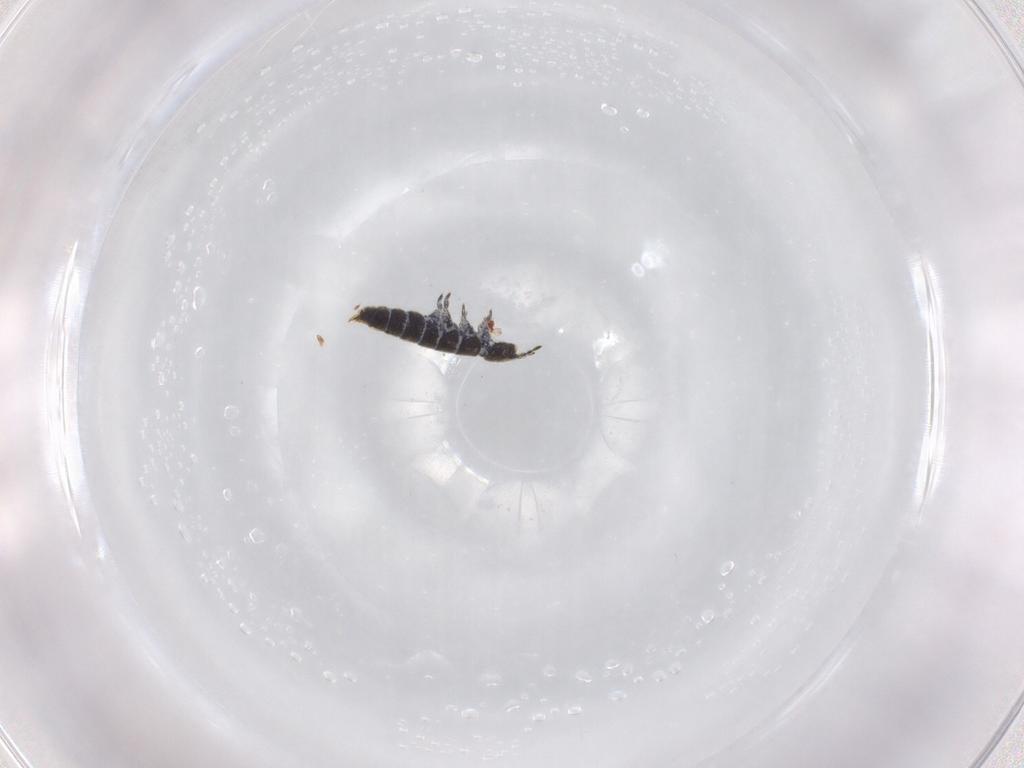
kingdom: Animalia
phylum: Arthropoda
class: Collembola
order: Entomobryomorpha
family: Isotomidae
